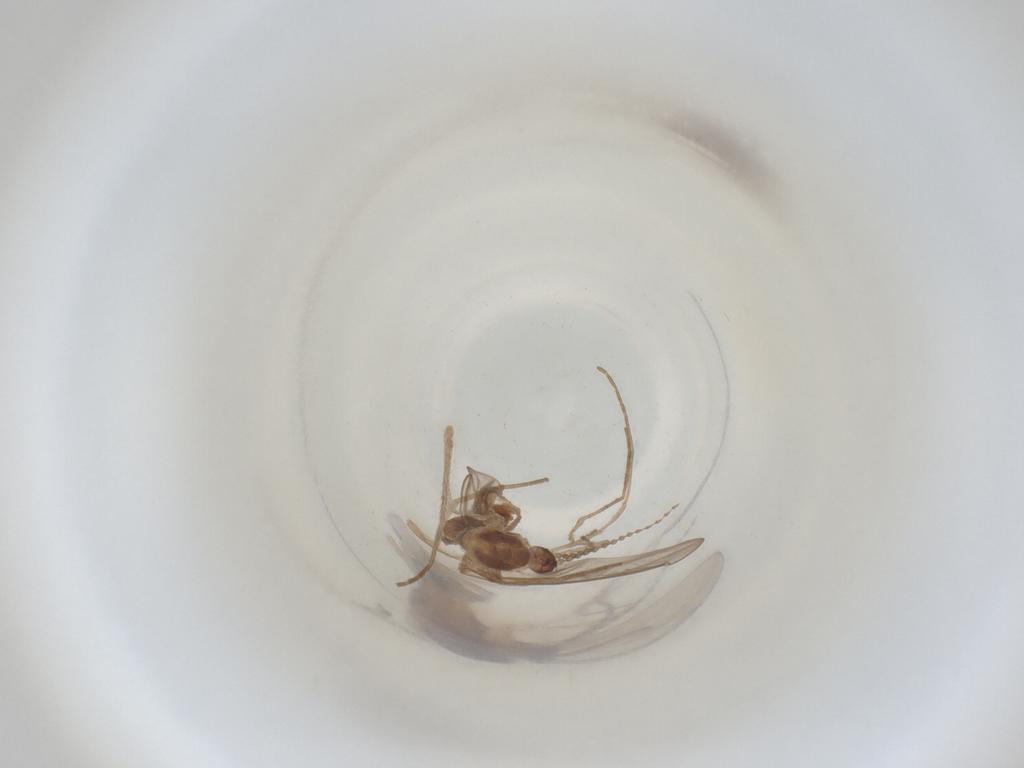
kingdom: Animalia
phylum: Arthropoda
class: Insecta
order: Diptera
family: Cecidomyiidae
